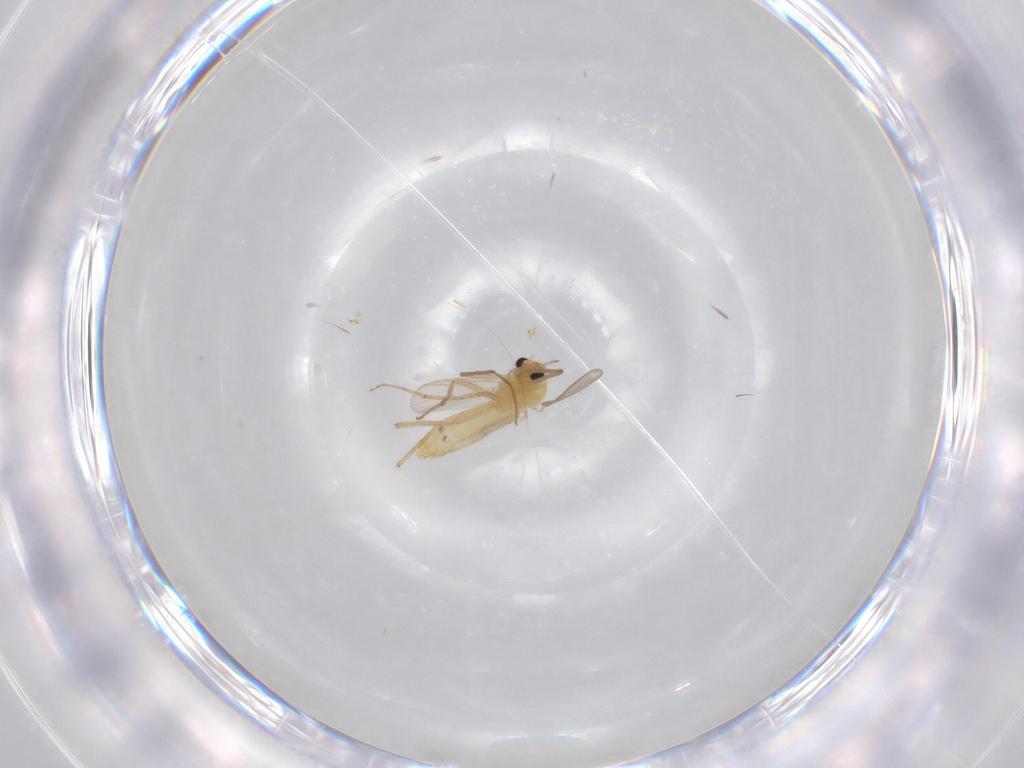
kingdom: Animalia
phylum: Arthropoda
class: Insecta
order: Diptera
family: Chironomidae
